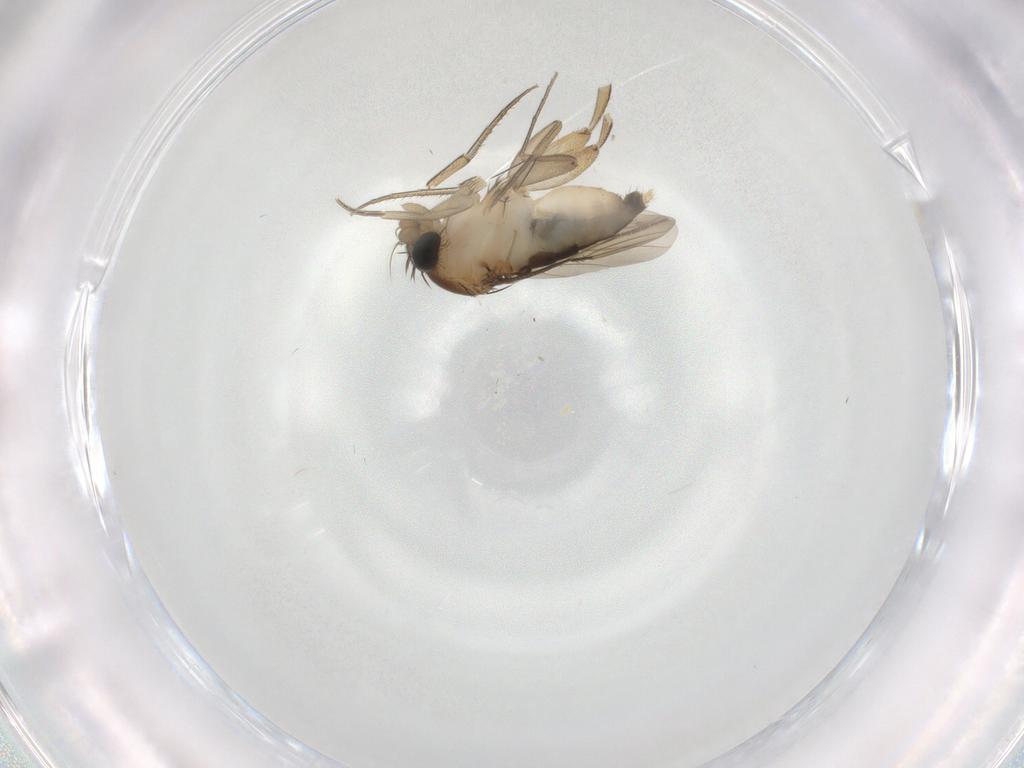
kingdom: Animalia
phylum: Arthropoda
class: Insecta
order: Diptera
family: Phoridae
